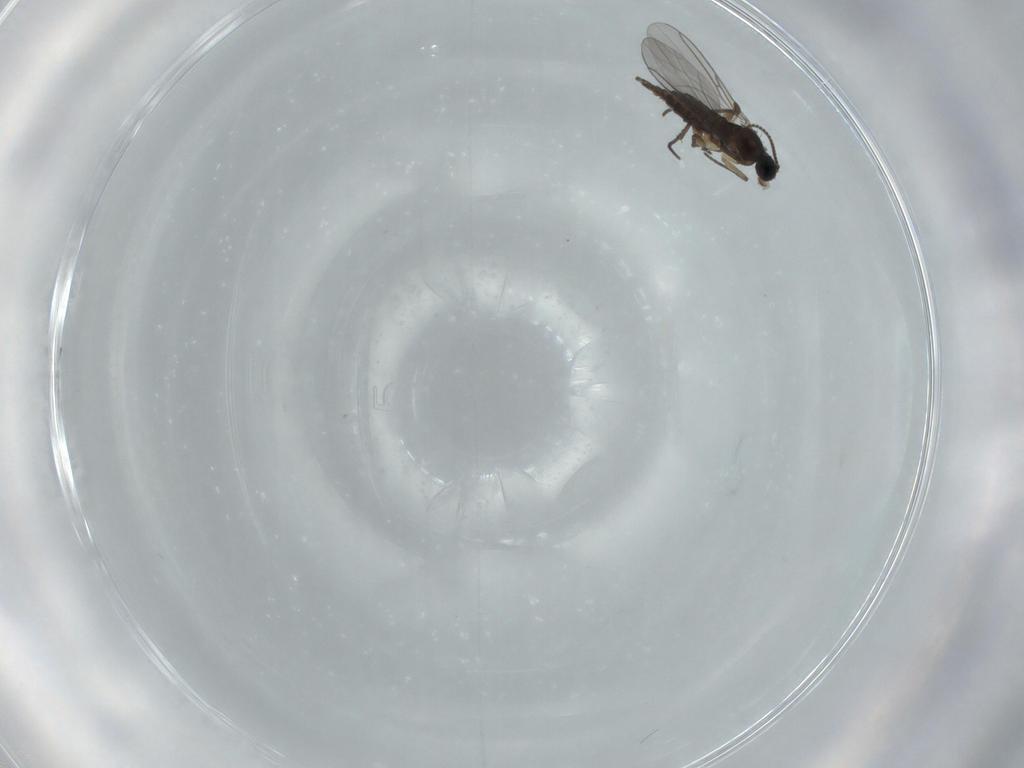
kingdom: Animalia
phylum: Arthropoda
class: Insecta
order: Diptera
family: Sciaridae
